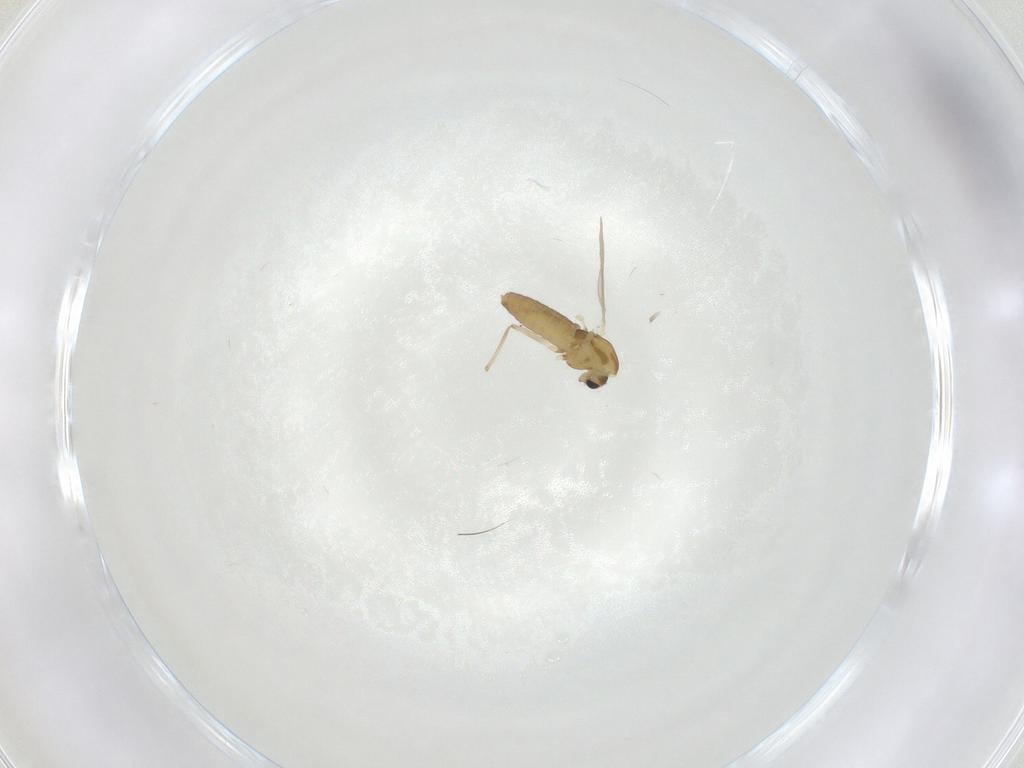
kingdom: Animalia
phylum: Arthropoda
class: Insecta
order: Diptera
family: Chironomidae
